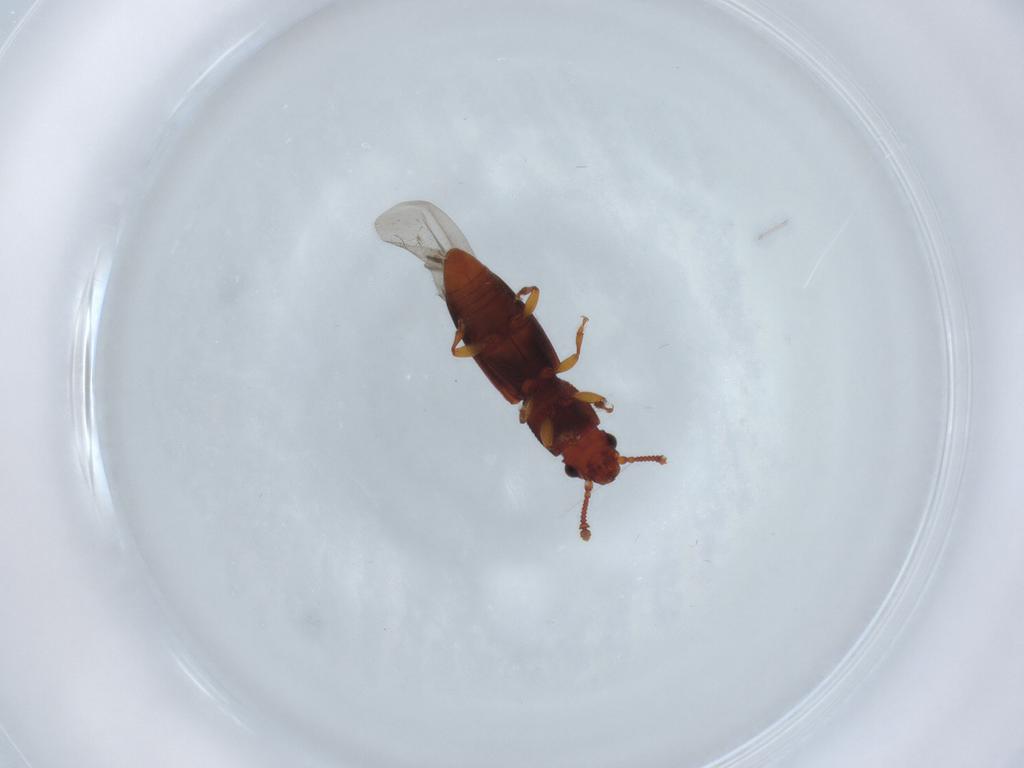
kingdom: Animalia
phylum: Arthropoda
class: Insecta
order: Coleoptera
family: Monotomidae
